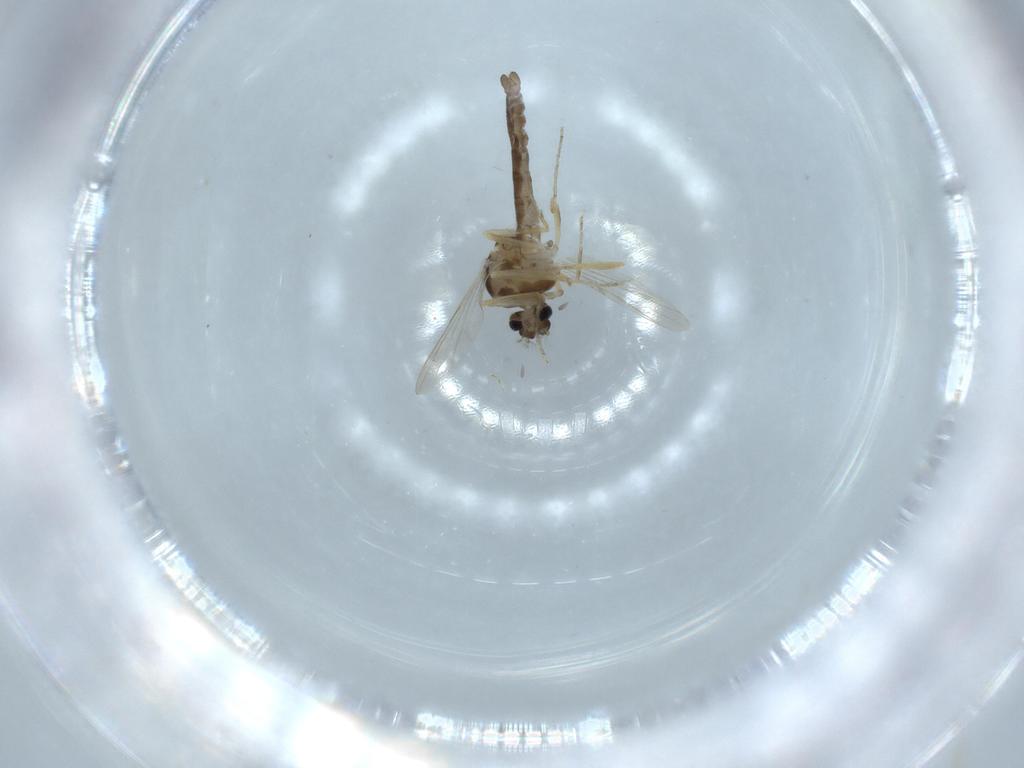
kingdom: Animalia
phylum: Arthropoda
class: Insecta
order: Diptera
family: Ceratopogonidae
